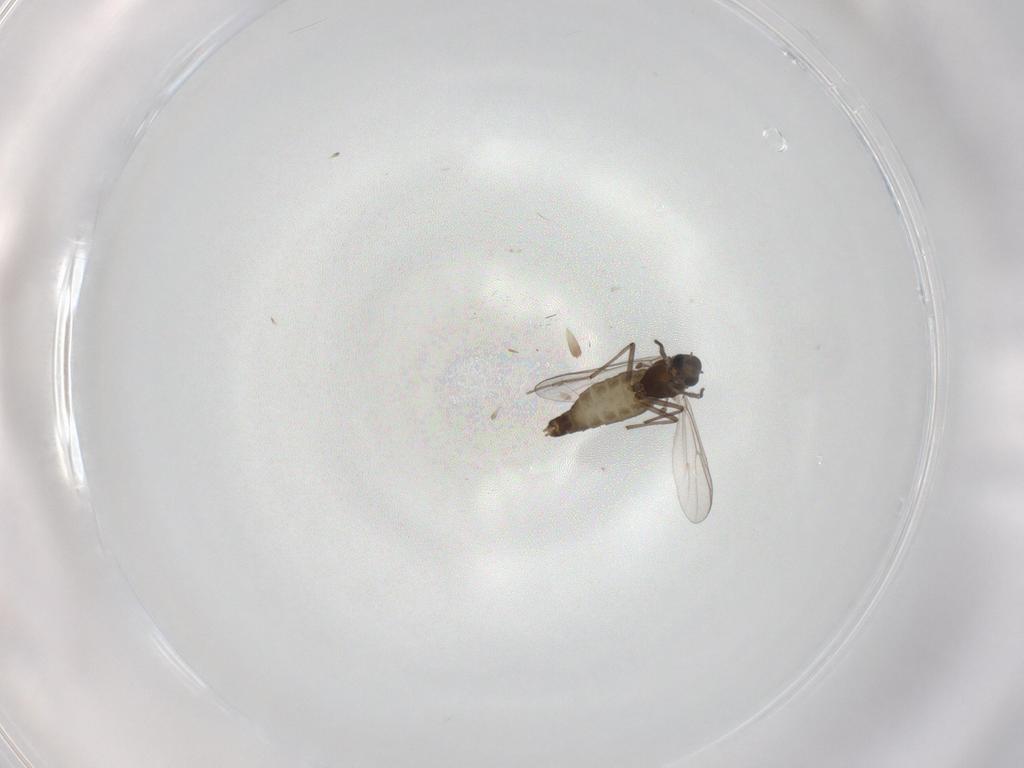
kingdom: Animalia
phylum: Arthropoda
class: Insecta
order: Diptera
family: Chironomidae
